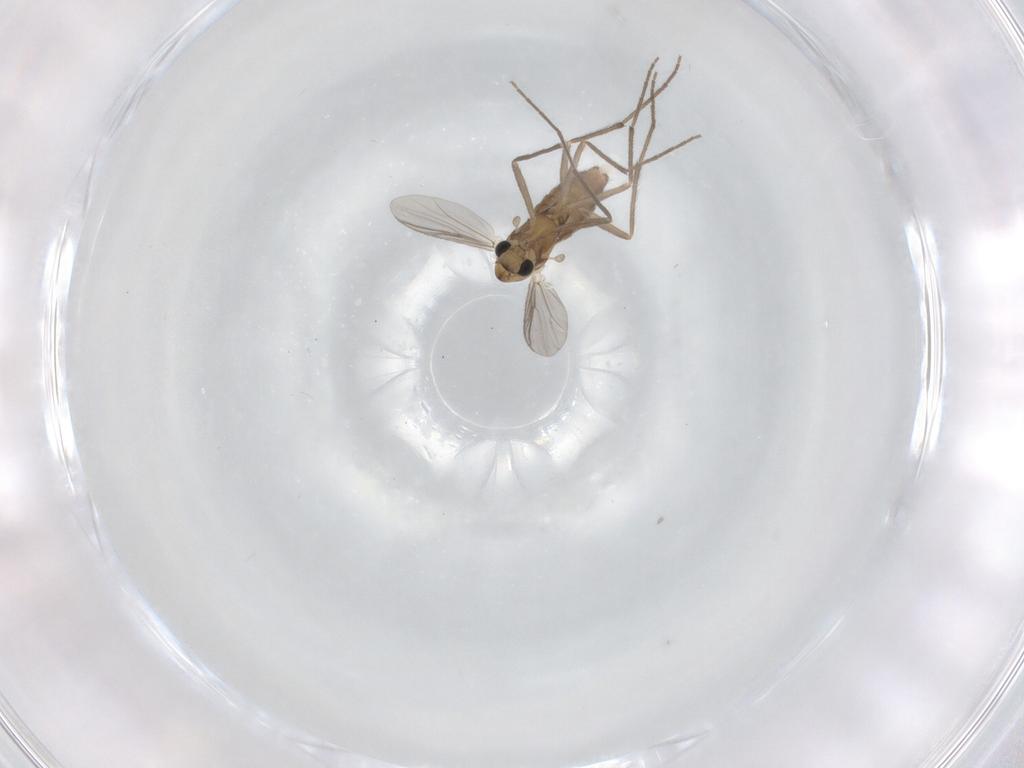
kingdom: Animalia
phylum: Arthropoda
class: Insecta
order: Diptera
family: Chironomidae
